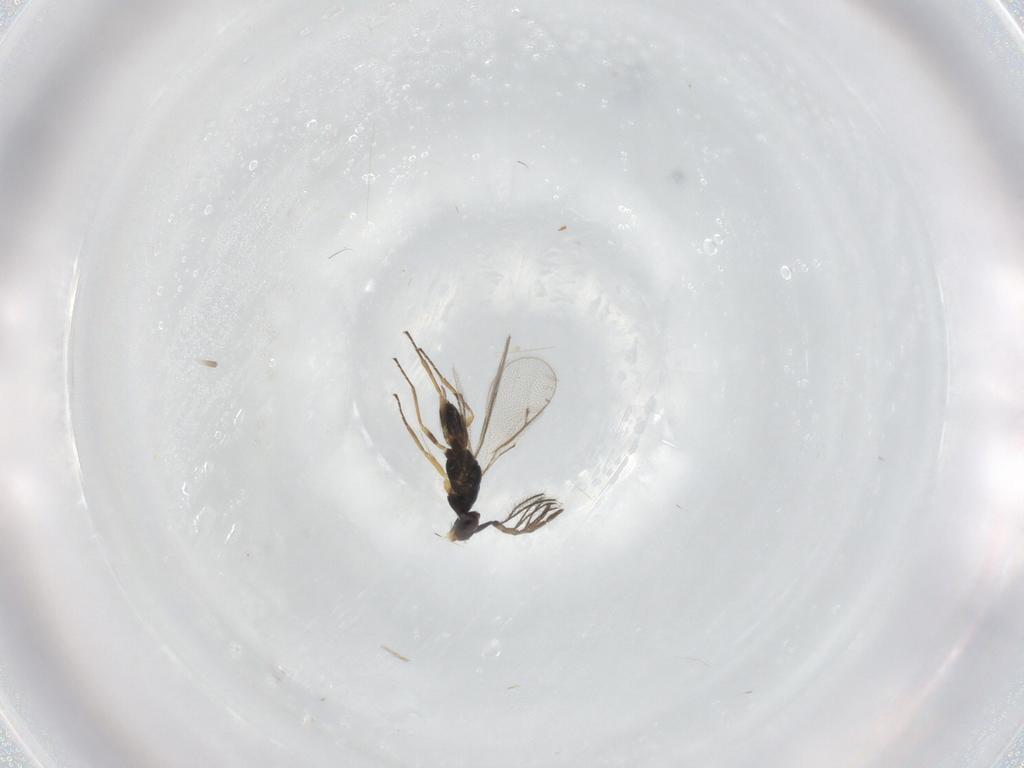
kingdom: Animalia
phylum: Arthropoda
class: Insecta
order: Hymenoptera
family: Eulophidae
